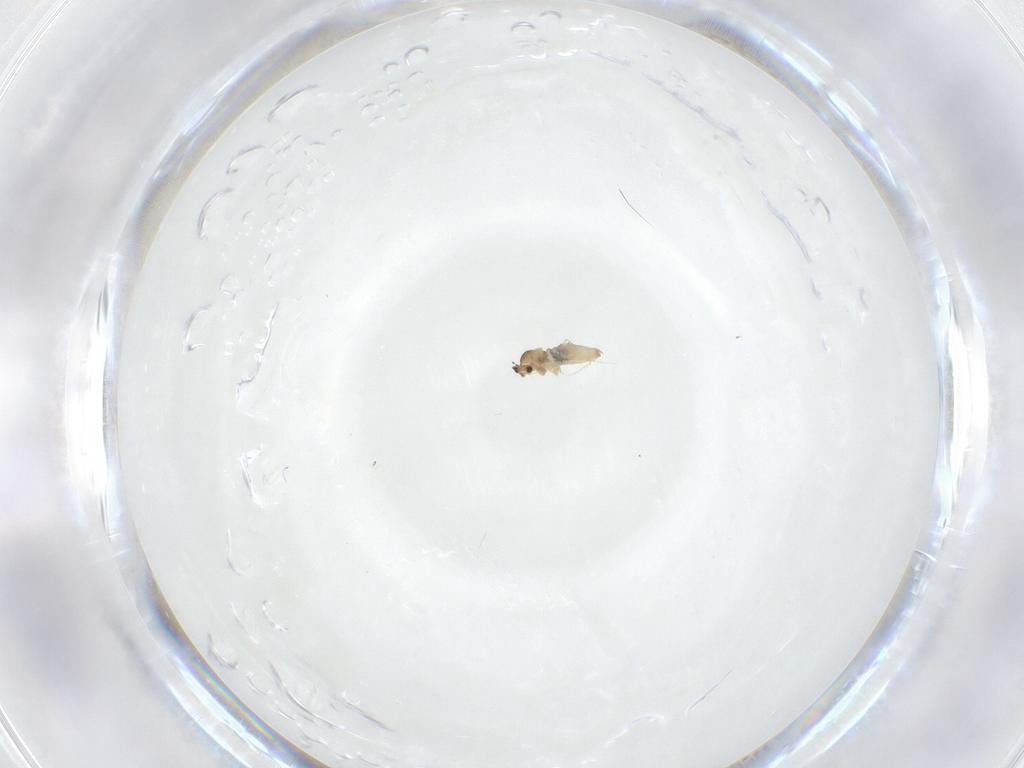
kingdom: Animalia
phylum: Arthropoda
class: Insecta
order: Diptera
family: Cecidomyiidae
